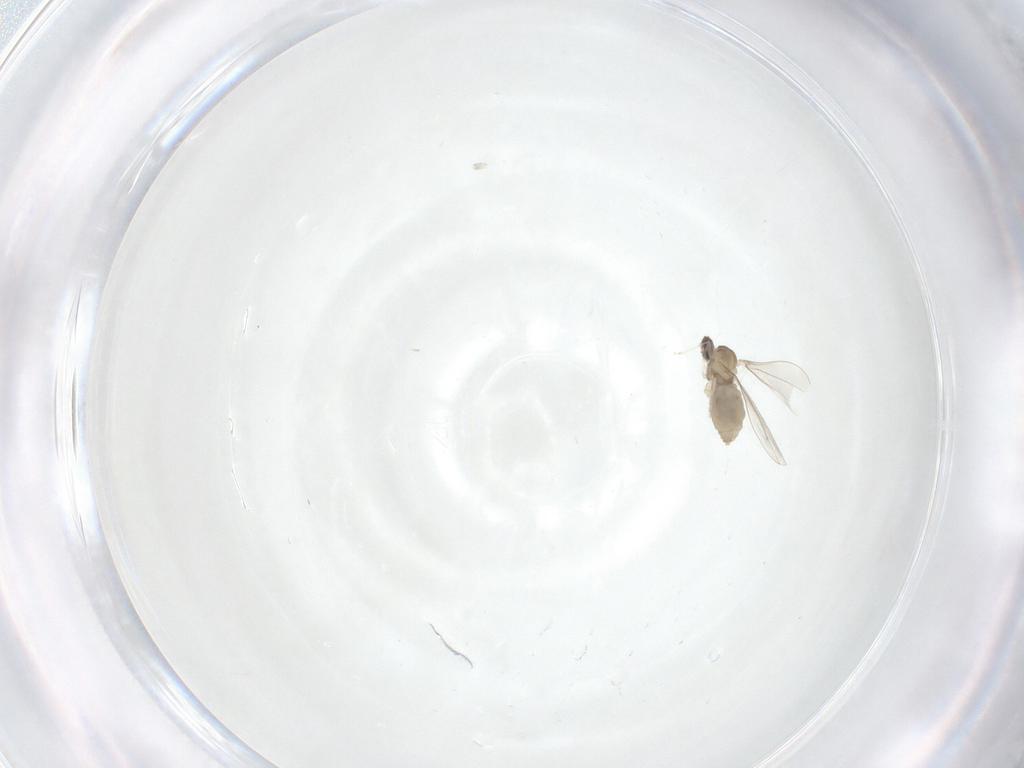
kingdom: Animalia
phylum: Arthropoda
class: Insecta
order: Diptera
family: Cecidomyiidae
